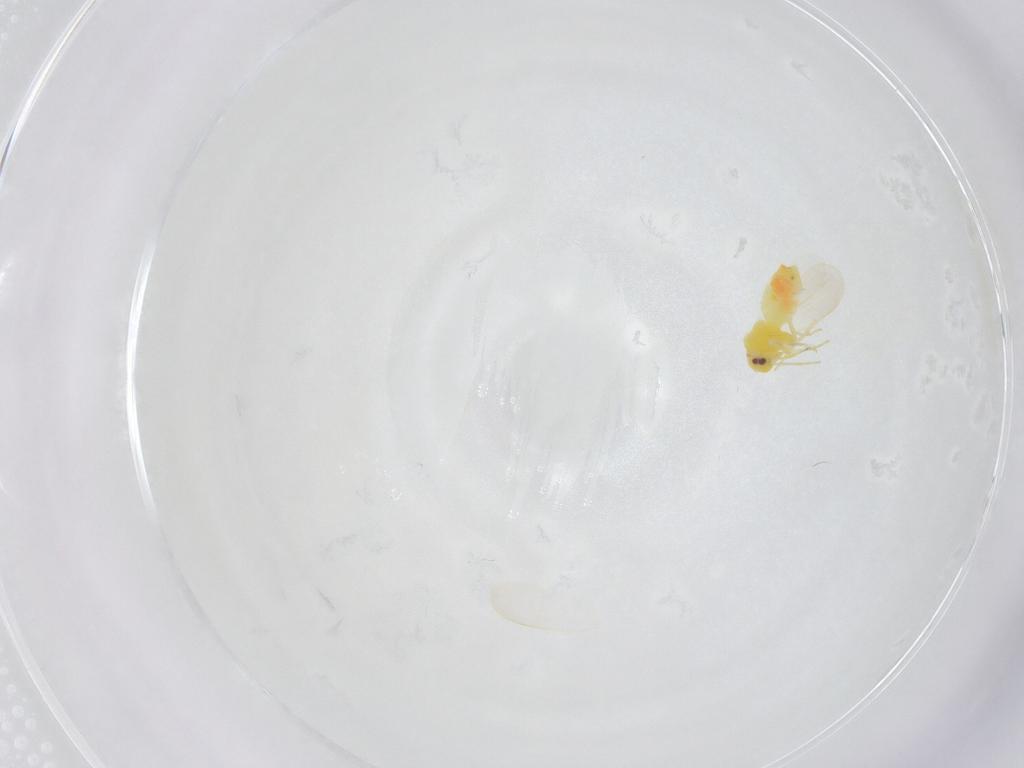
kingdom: Animalia
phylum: Arthropoda
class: Insecta
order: Hemiptera
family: Aleyrodidae
